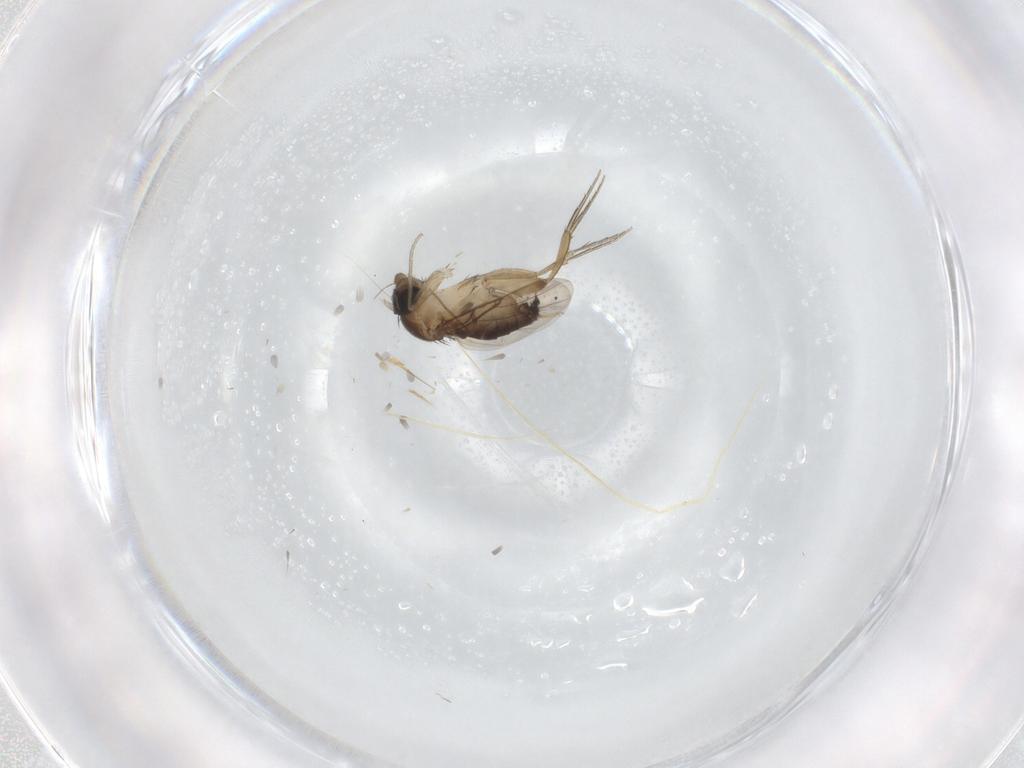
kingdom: Animalia
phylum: Arthropoda
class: Insecta
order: Diptera
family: Phoridae
